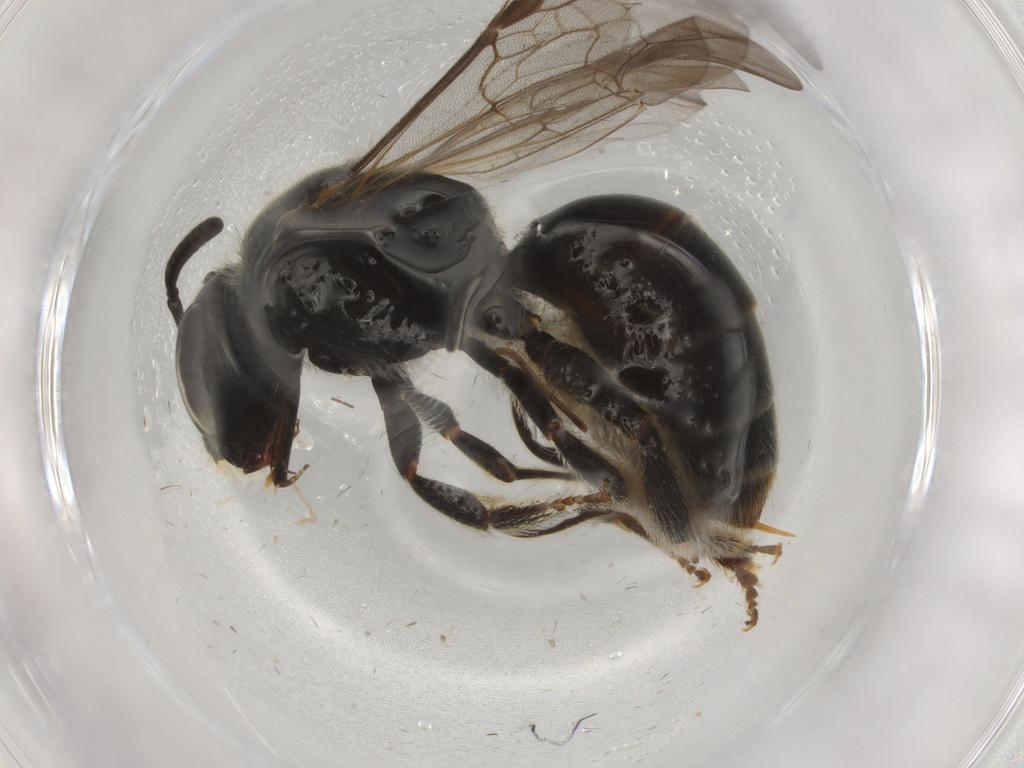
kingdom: Animalia
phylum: Arthropoda
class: Insecta
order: Hymenoptera
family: Halictidae
